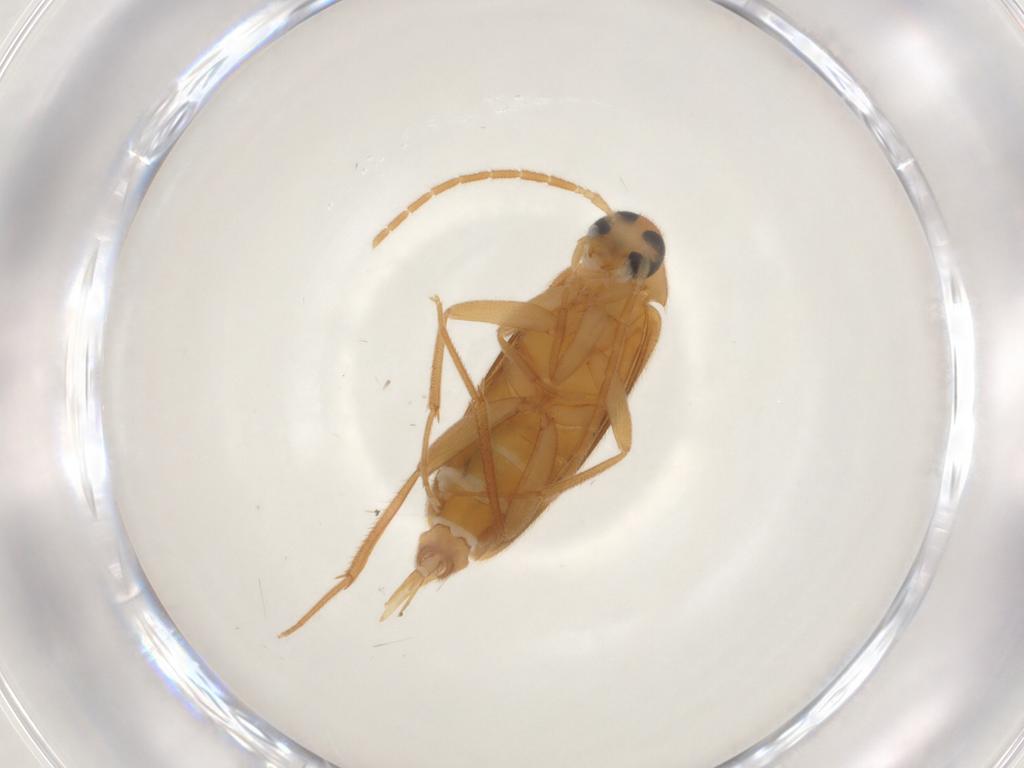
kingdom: Animalia
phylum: Arthropoda
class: Insecta
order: Coleoptera
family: Scraptiidae
